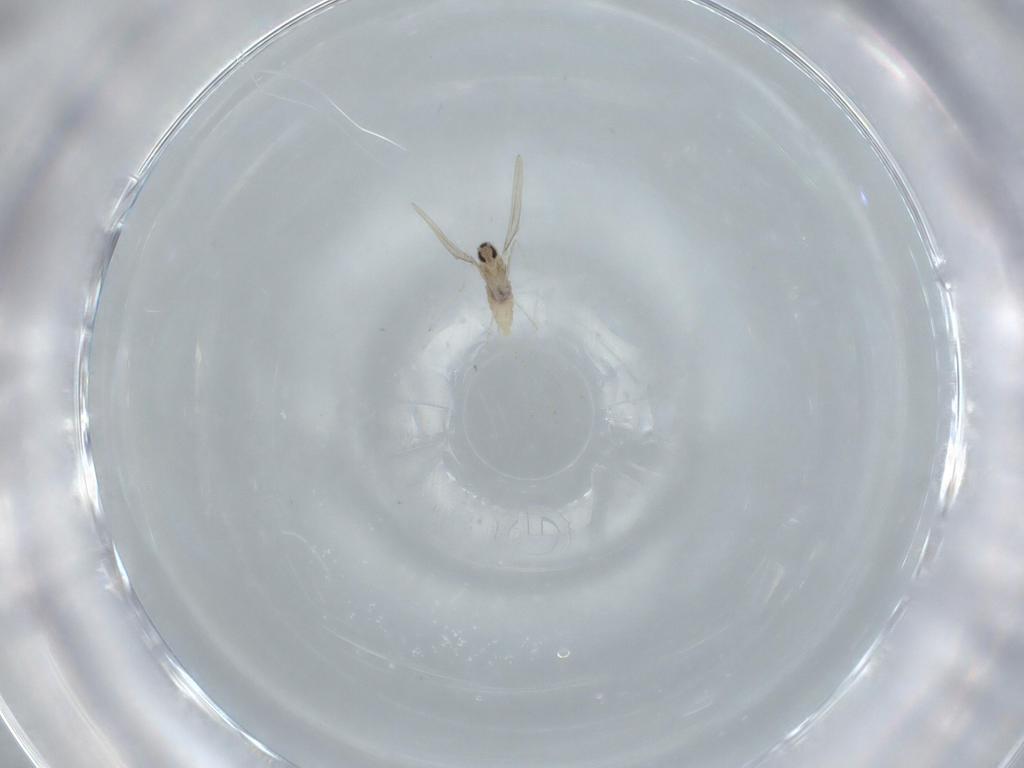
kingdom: Animalia
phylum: Arthropoda
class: Insecta
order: Diptera
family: Cecidomyiidae
